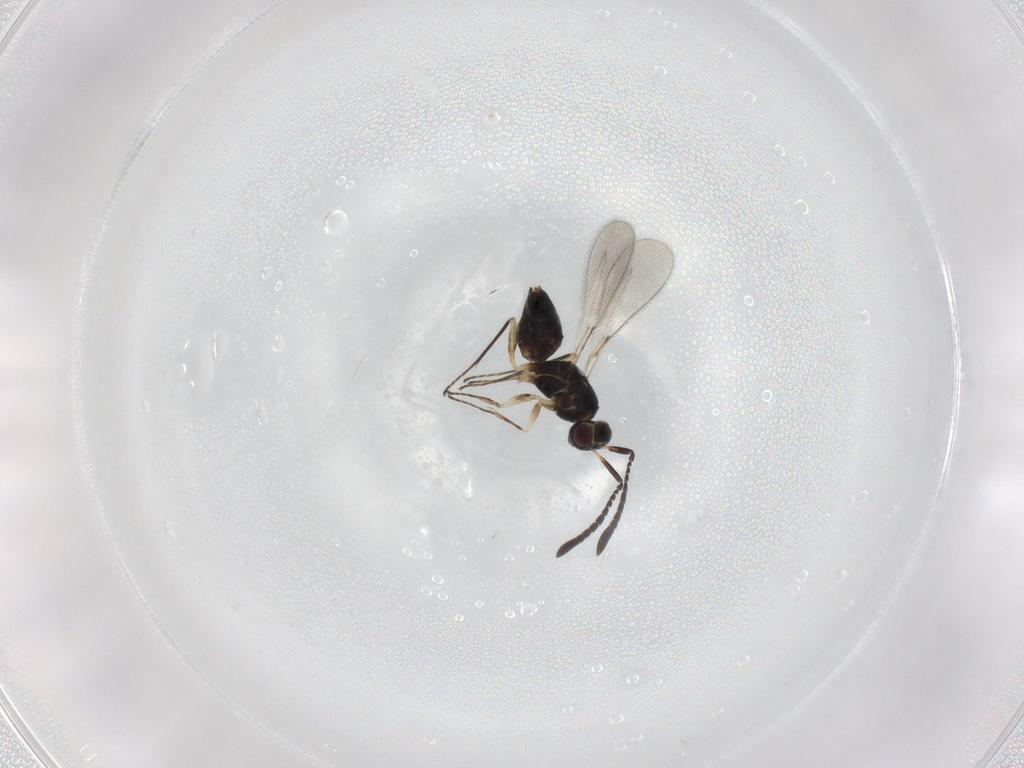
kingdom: Animalia
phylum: Arthropoda
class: Insecta
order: Hymenoptera
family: Mymaridae
